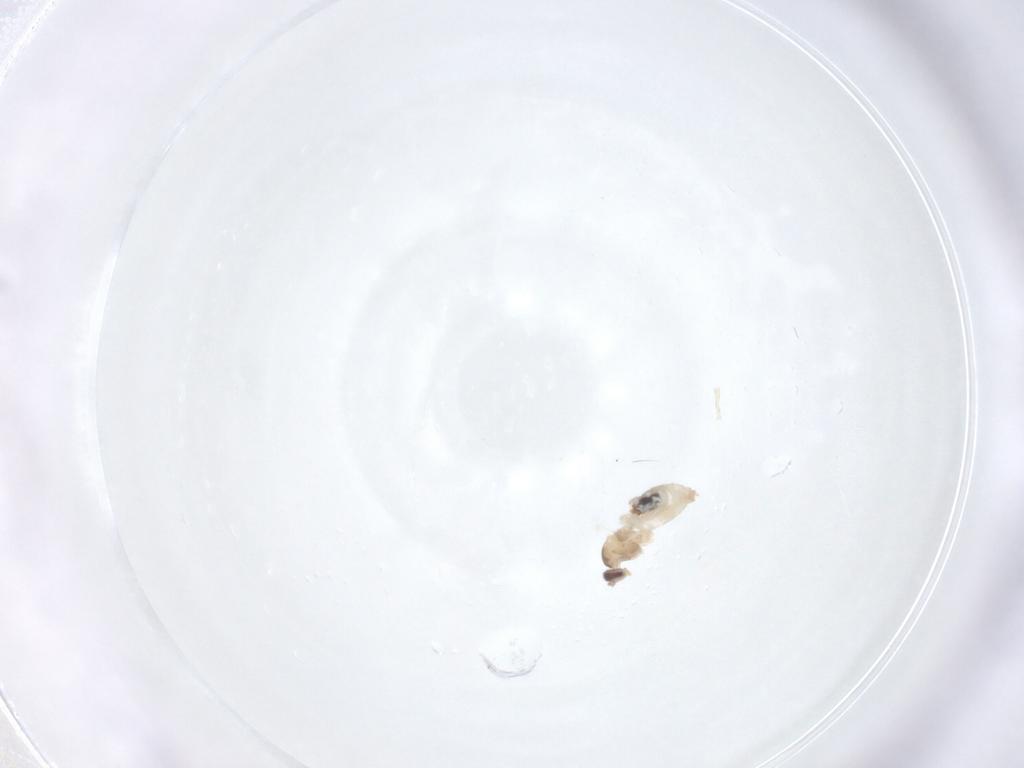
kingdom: Animalia
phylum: Arthropoda
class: Insecta
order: Diptera
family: Cecidomyiidae
